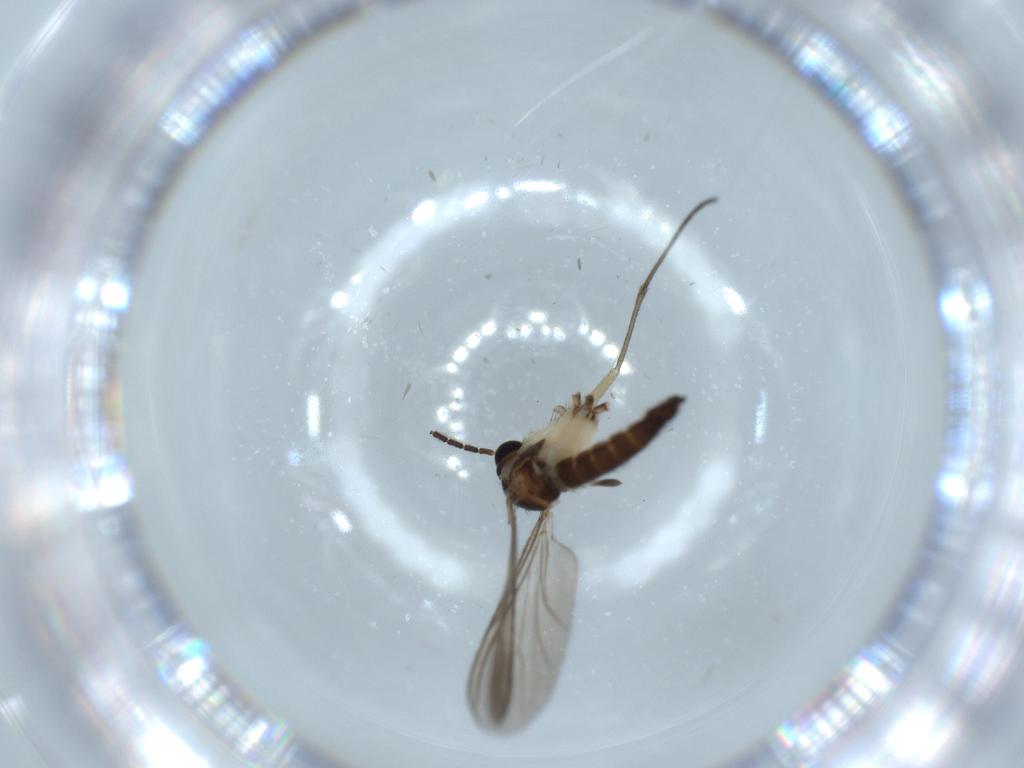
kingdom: Animalia
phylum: Arthropoda
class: Insecta
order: Diptera
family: Sciaridae
